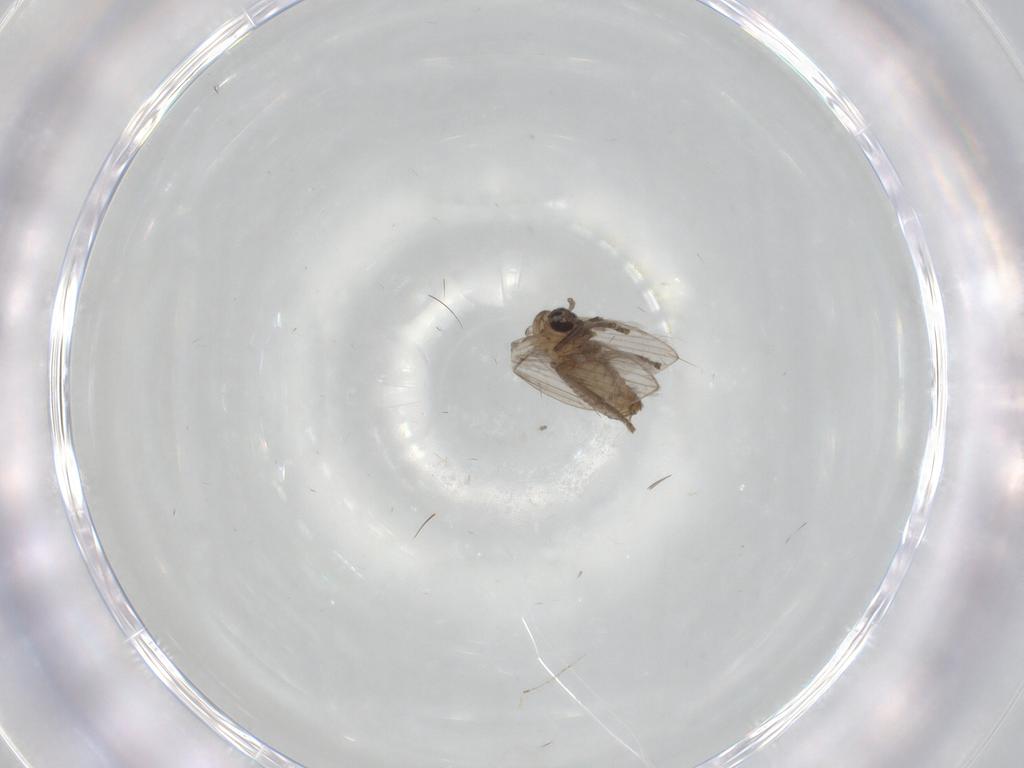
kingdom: Animalia
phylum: Arthropoda
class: Insecta
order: Diptera
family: Psychodidae
